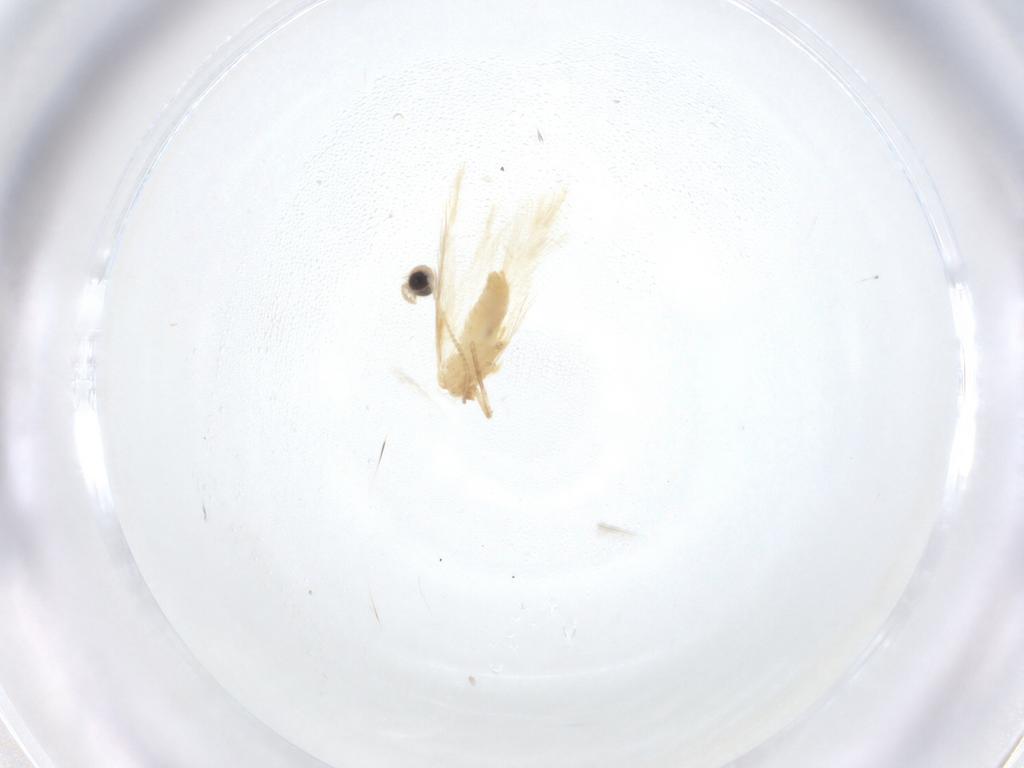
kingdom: Animalia
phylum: Arthropoda
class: Insecta
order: Lepidoptera
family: Nepticulidae
